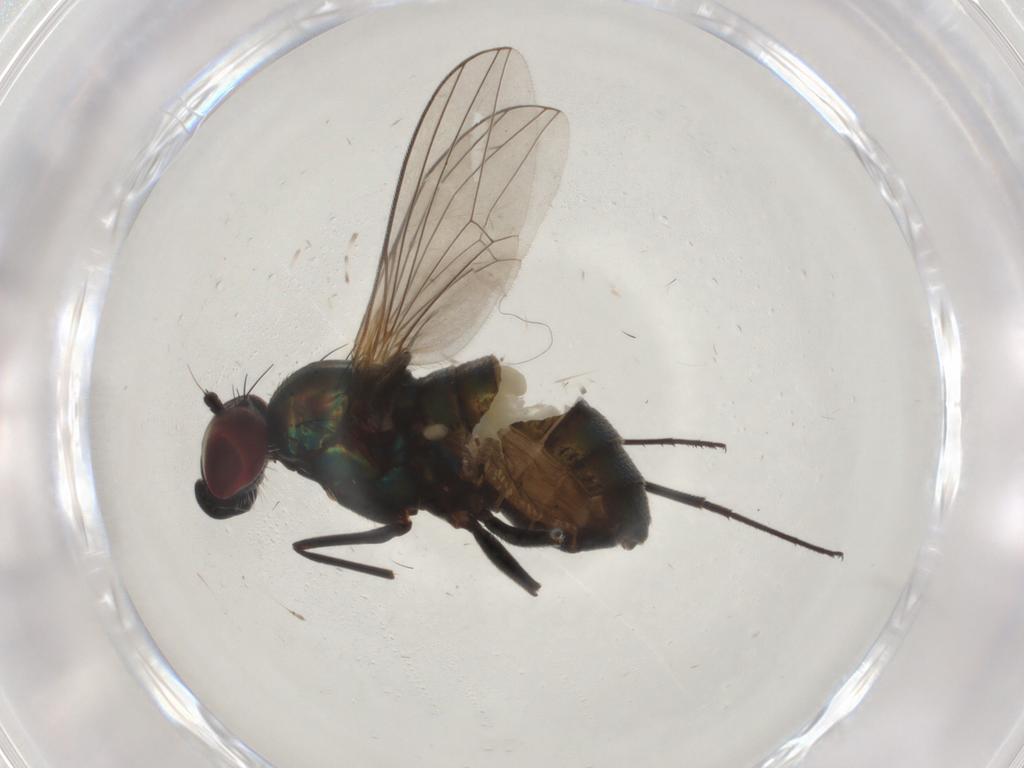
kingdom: Animalia
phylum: Arthropoda
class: Insecta
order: Diptera
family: Dolichopodidae
